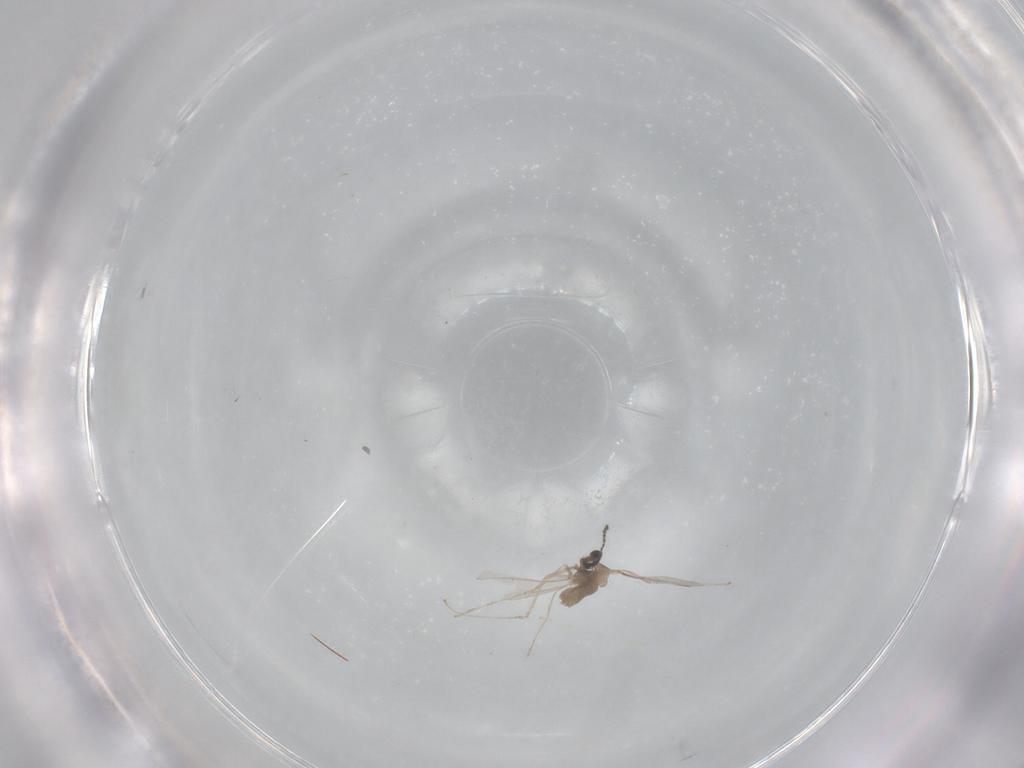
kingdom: Animalia
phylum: Arthropoda
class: Insecta
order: Diptera
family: Cecidomyiidae
